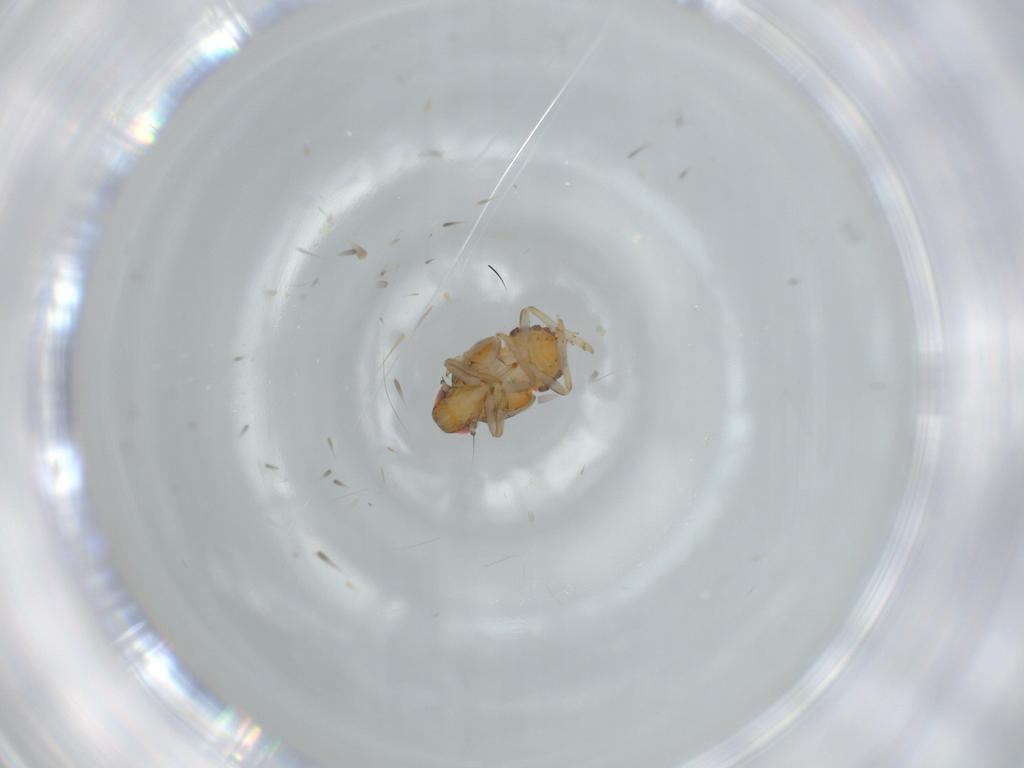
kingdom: Animalia
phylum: Arthropoda
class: Insecta
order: Hemiptera
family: Issidae
